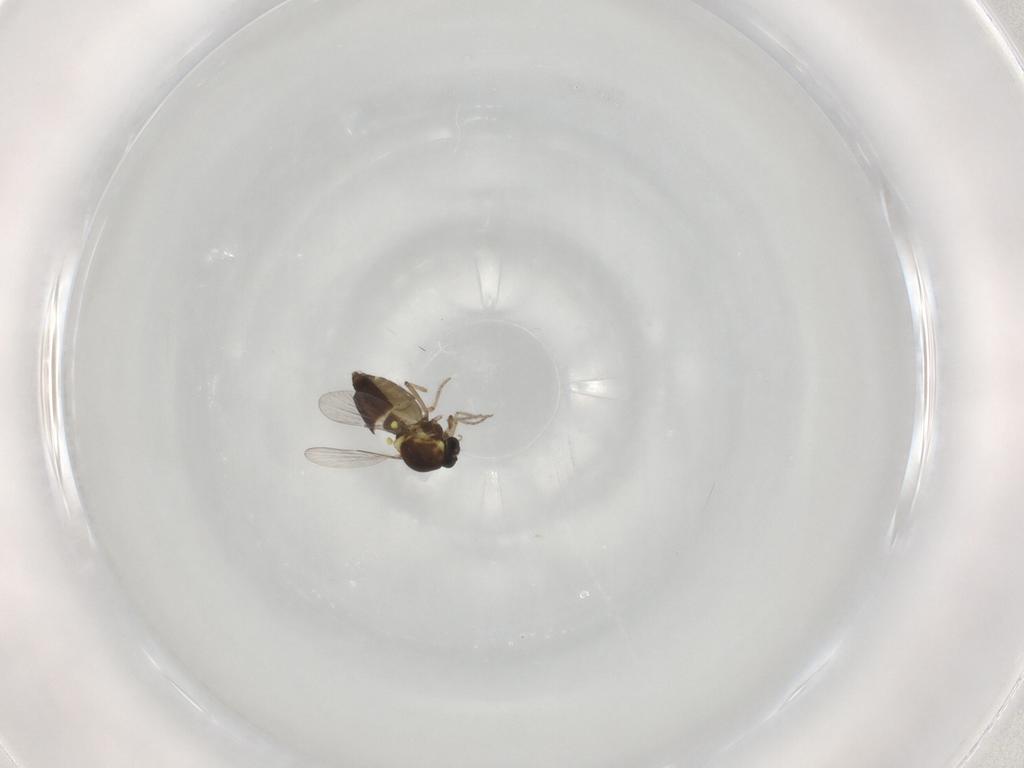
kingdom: Animalia
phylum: Arthropoda
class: Insecta
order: Diptera
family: Ceratopogonidae
